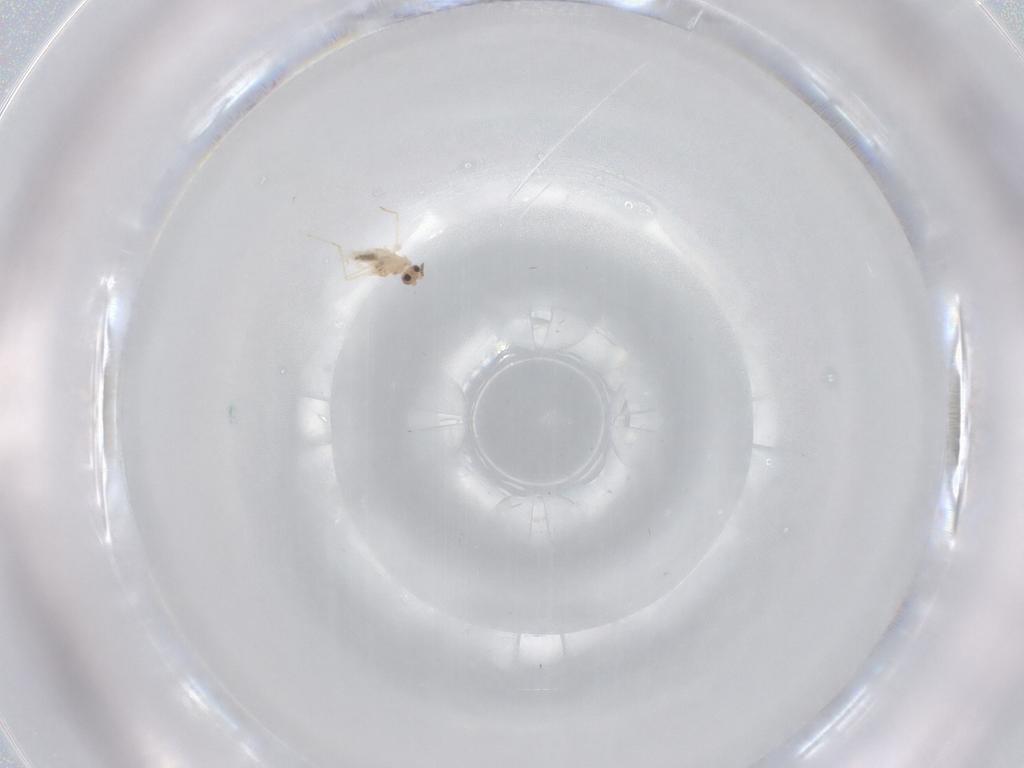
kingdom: Animalia
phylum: Arthropoda
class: Insecta
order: Diptera
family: Cecidomyiidae
